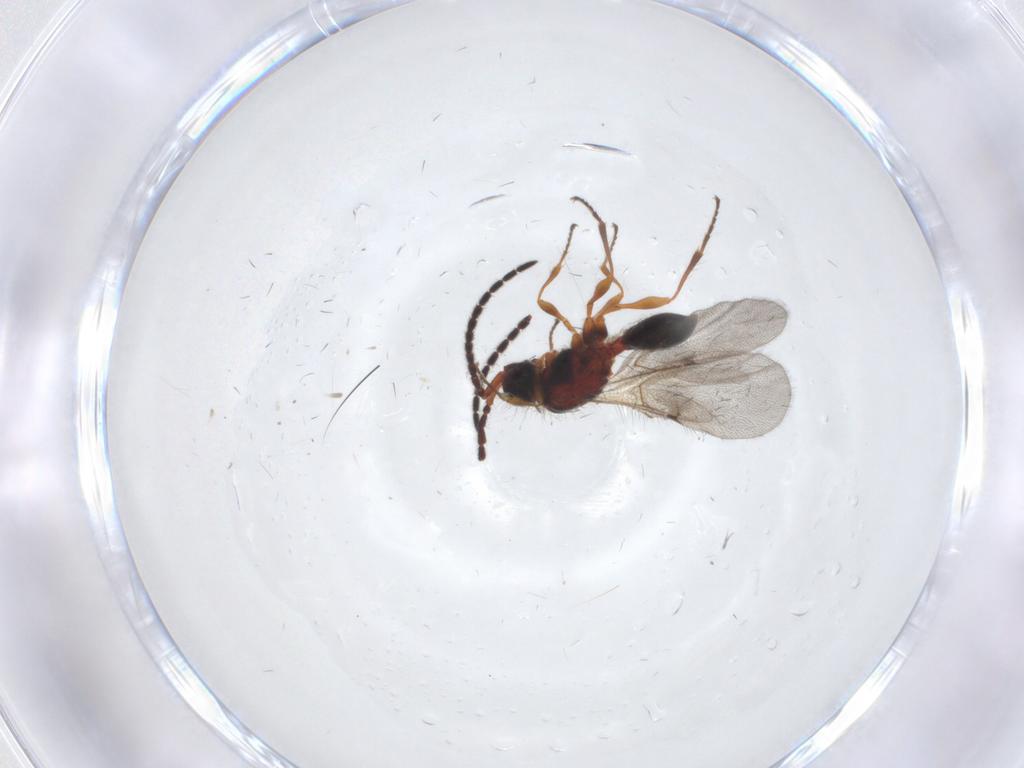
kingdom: Animalia
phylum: Arthropoda
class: Insecta
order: Hymenoptera
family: Diapriidae
